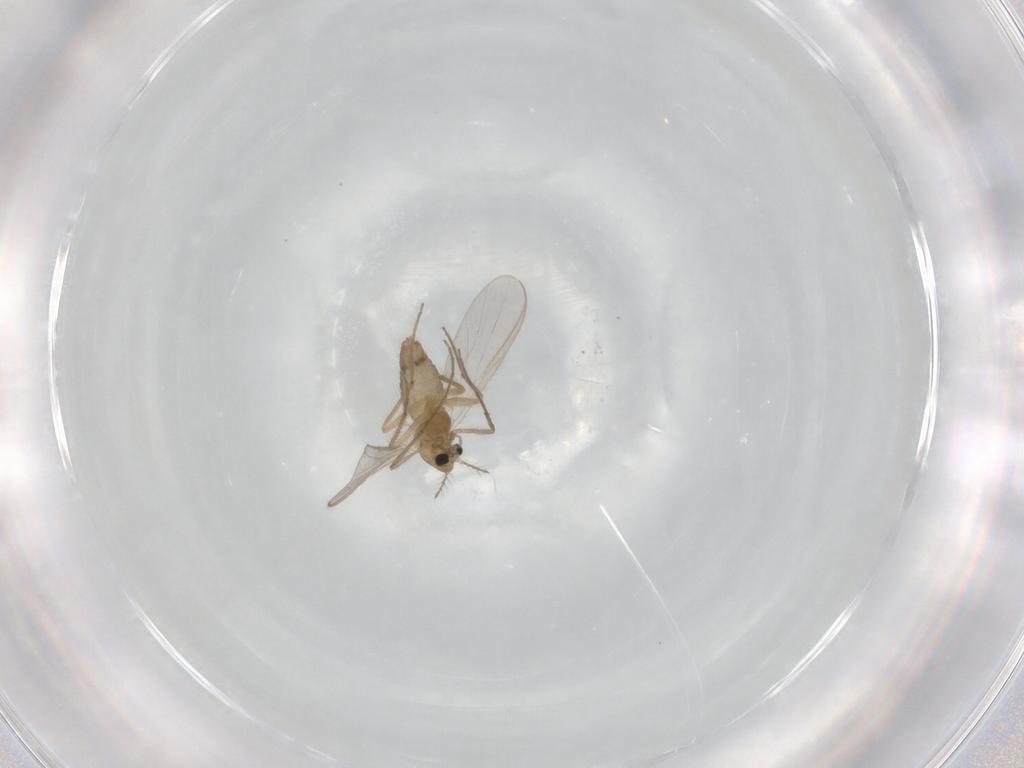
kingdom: Animalia
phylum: Arthropoda
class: Insecta
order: Diptera
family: Chironomidae
